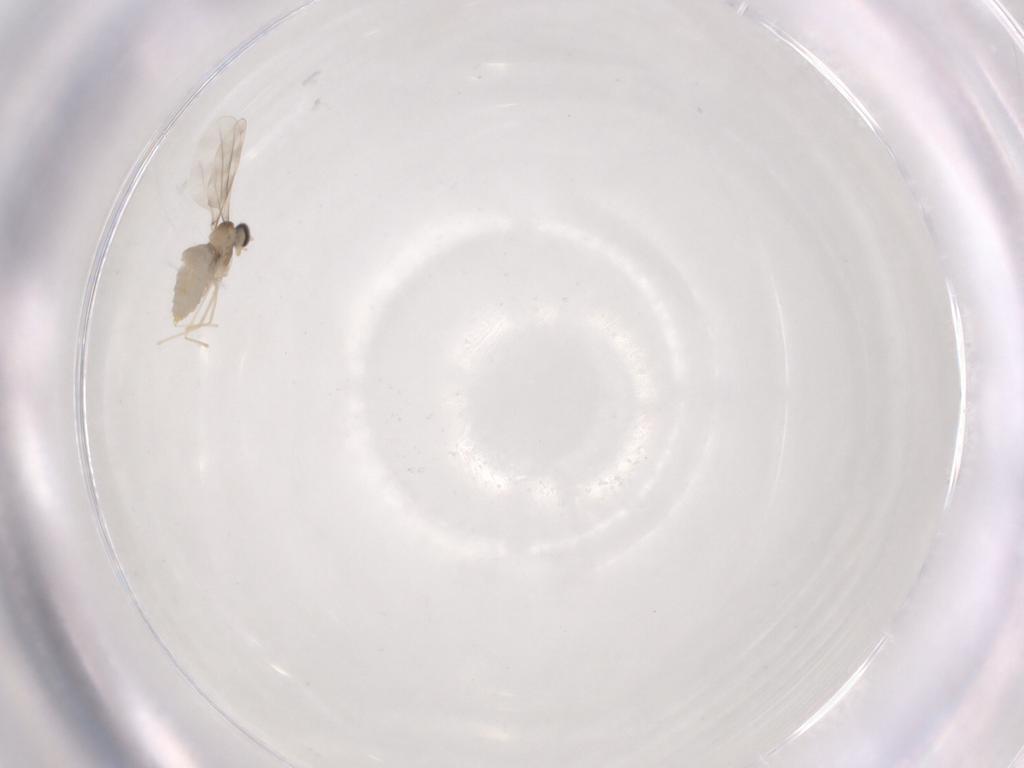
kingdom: Animalia
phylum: Arthropoda
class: Insecta
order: Diptera
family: Cecidomyiidae
